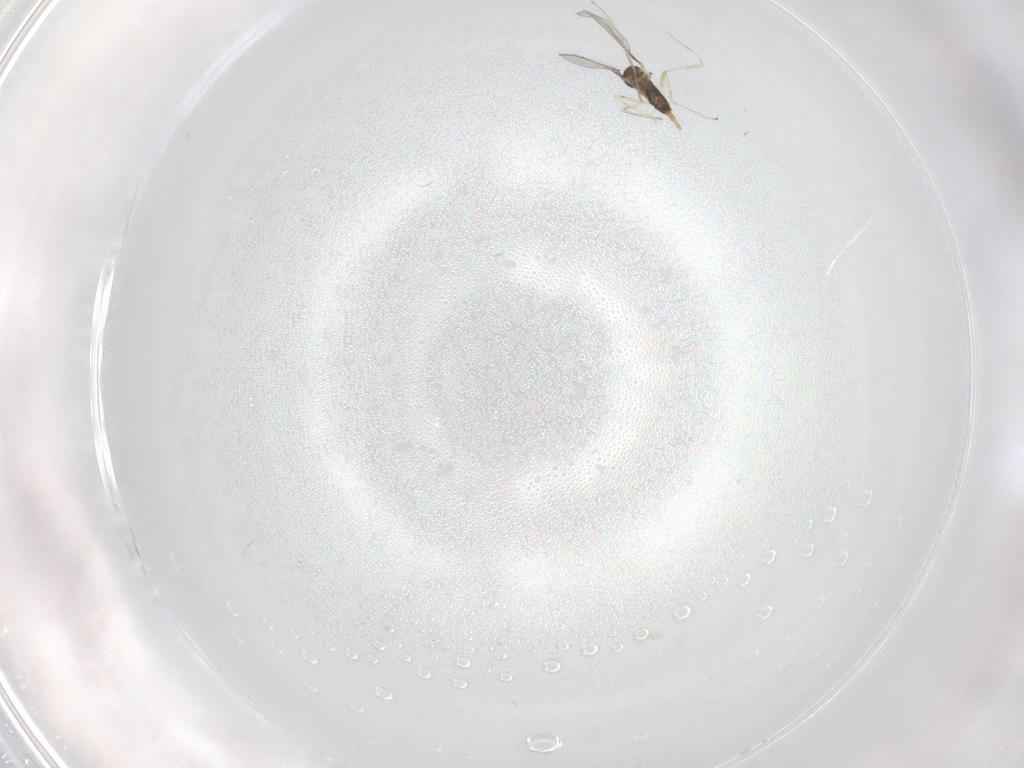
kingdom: Animalia
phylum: Arthropoda
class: Insecta
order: Diptera
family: Cecidomyiidae
